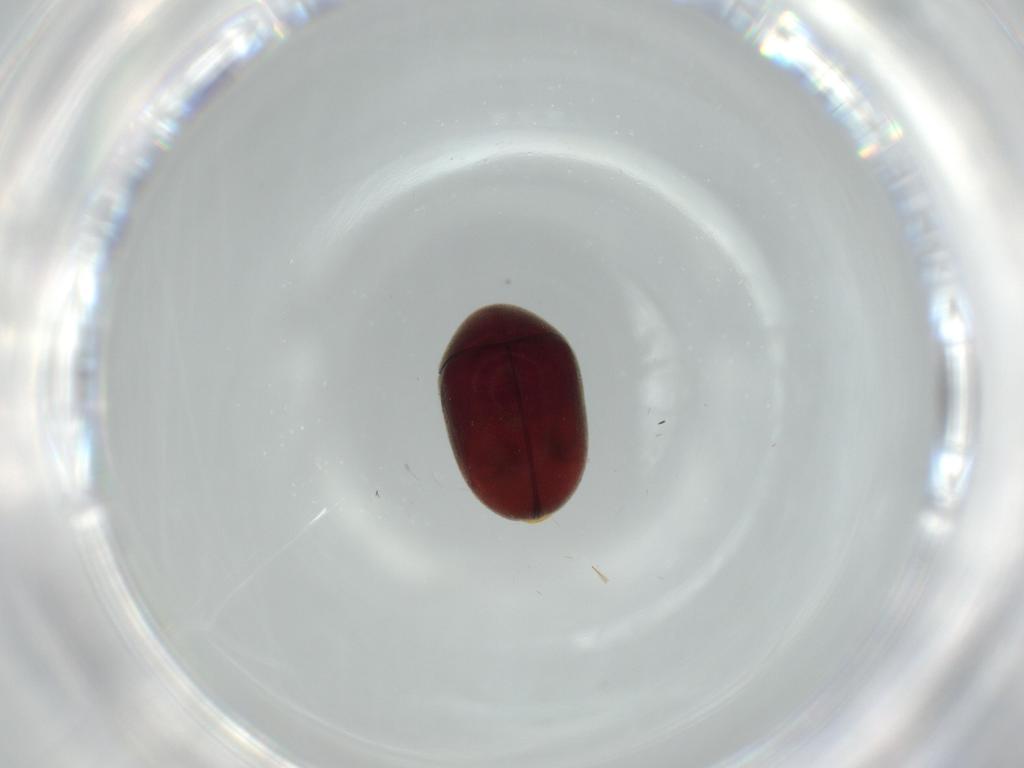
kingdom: Animalia
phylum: Arthropoda
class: Insecta
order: Coleoptera
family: Ptinidae
